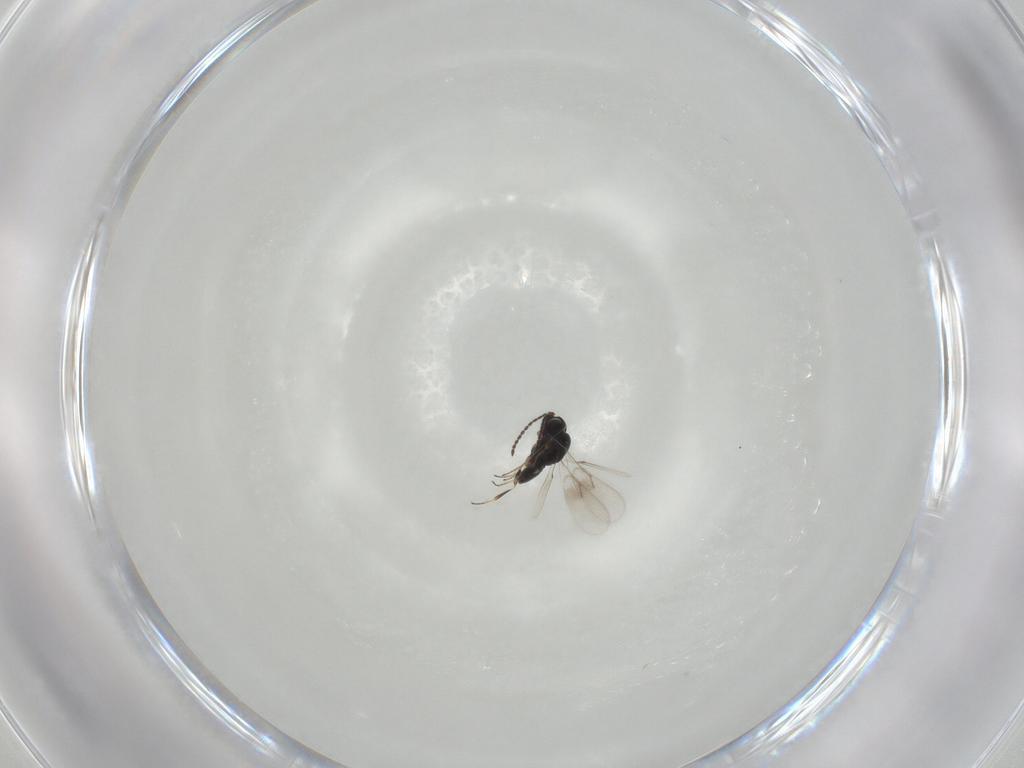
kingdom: Animalia
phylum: Arthropoda
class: Insecta
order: Hymenoptera
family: Scelionidae
